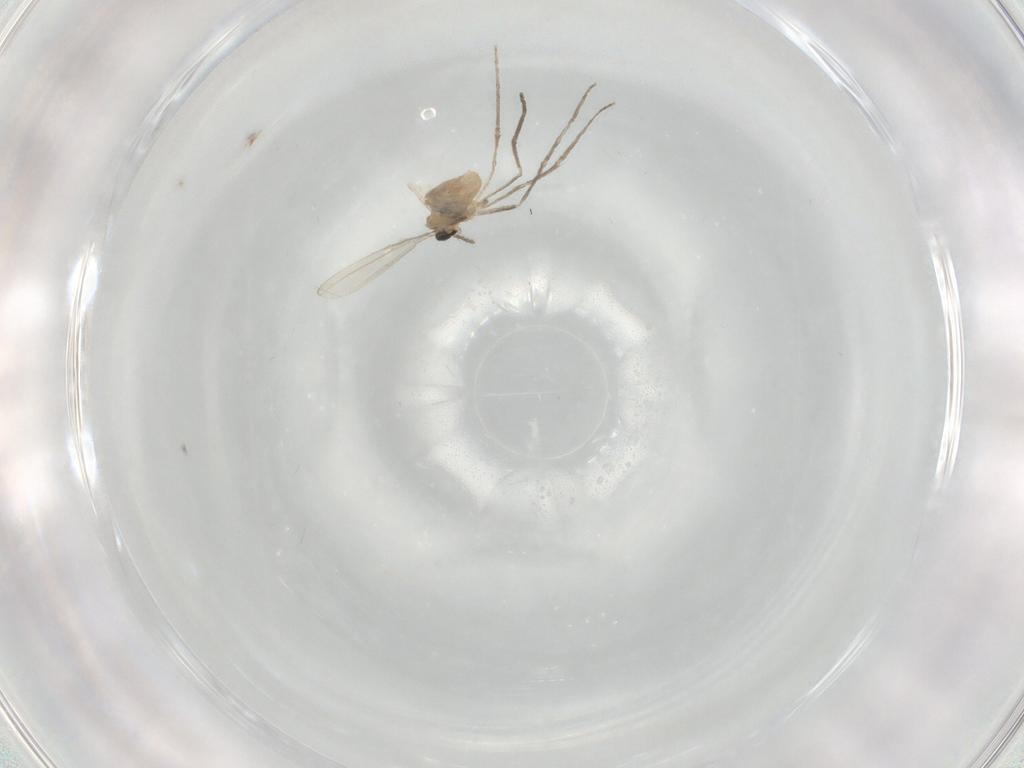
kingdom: Animalia
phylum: Arthropoda
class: Insecta
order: Diptera
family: Cecidomyiidae
